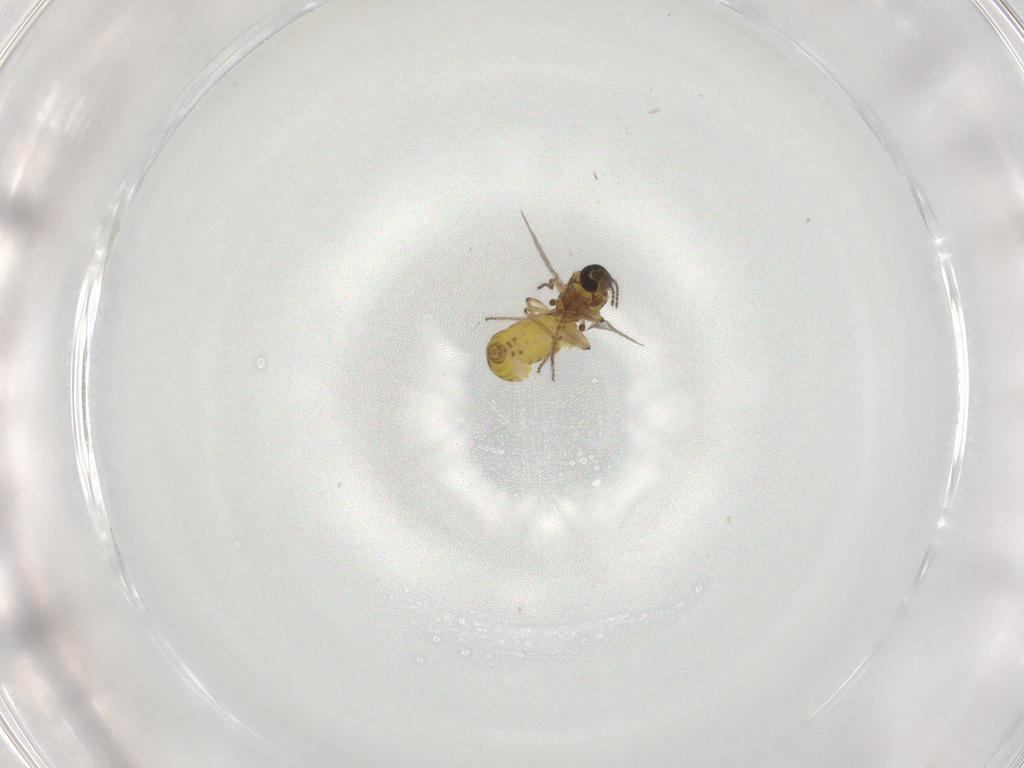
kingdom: Animalia
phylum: Arthropoda
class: Insecta
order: Diptera
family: Ceratopogonidae
